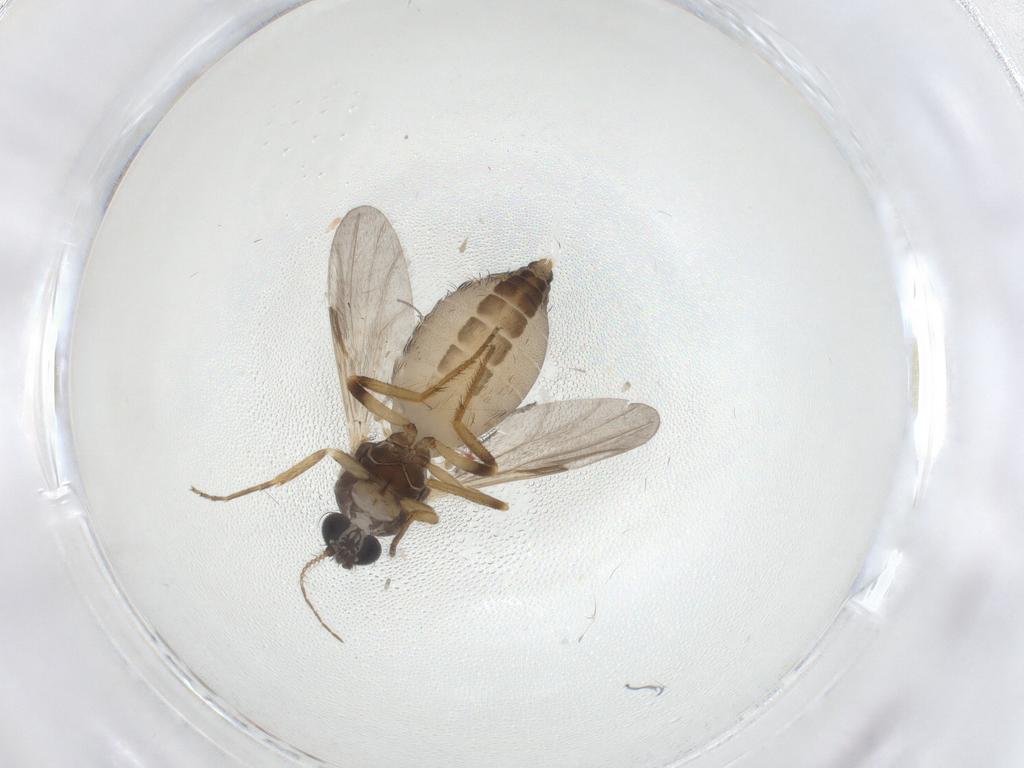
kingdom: Animalia
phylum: Arthropoda
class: Insecta
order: Diptera
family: Ceratopogonidae
